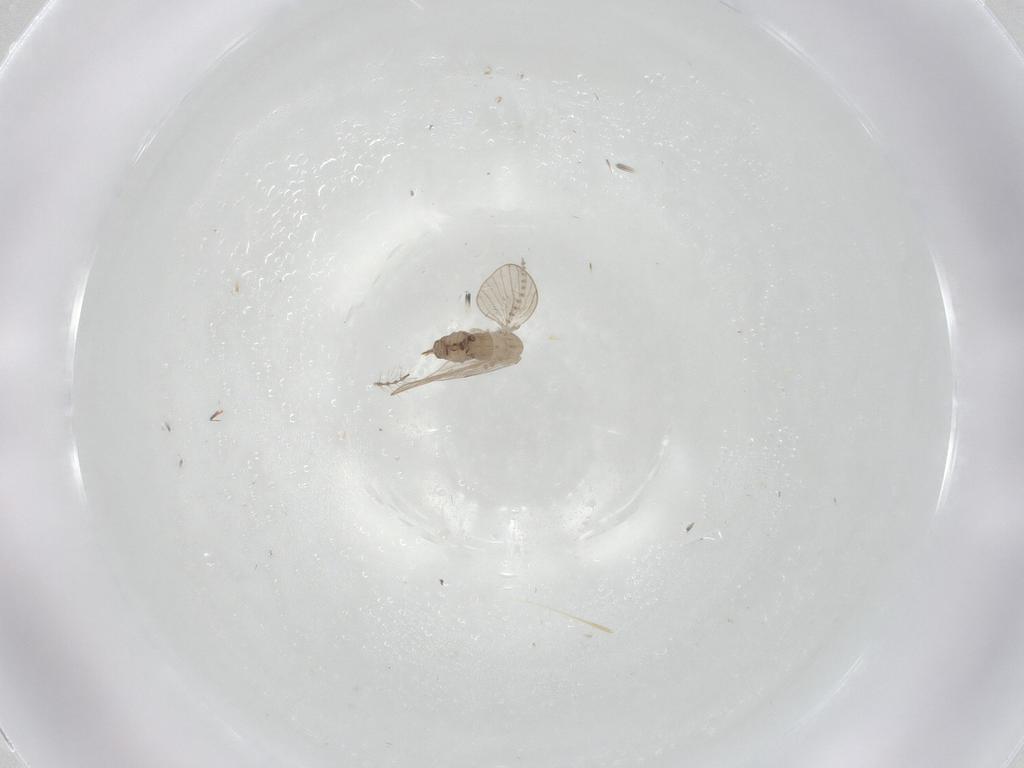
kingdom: Animalia
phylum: Arthropoda
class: Insecta
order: Diptera
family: Psychodidae
